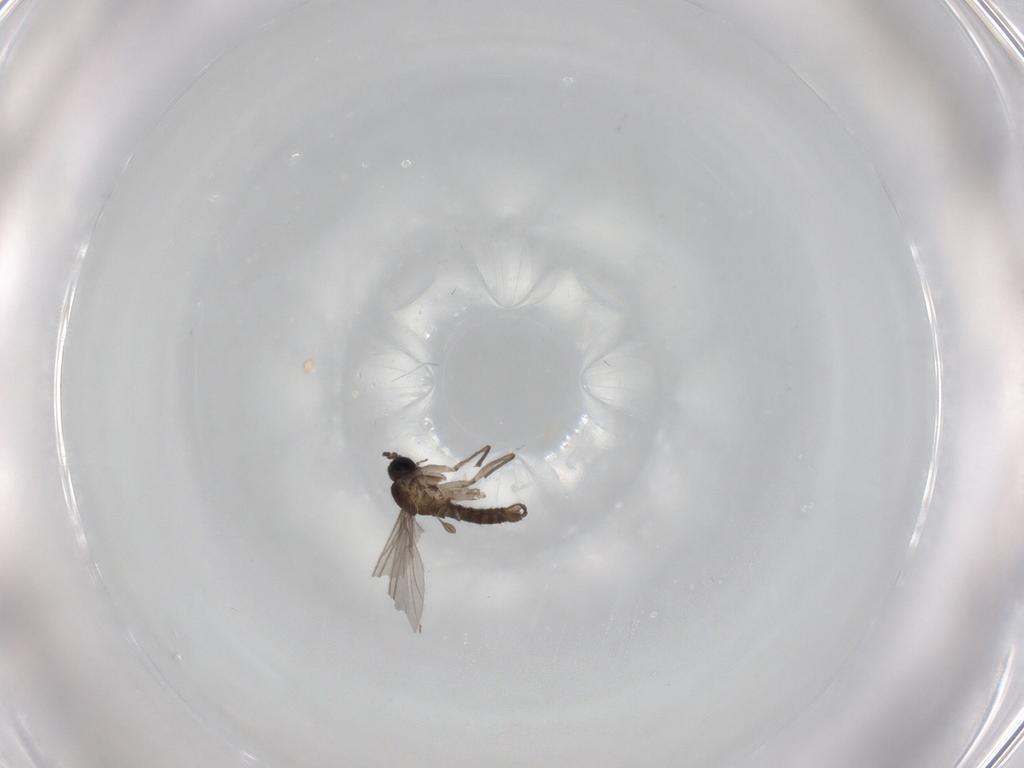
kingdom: Animalia
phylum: Arthropoda
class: Insecta
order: Diptera
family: Sciaridae
